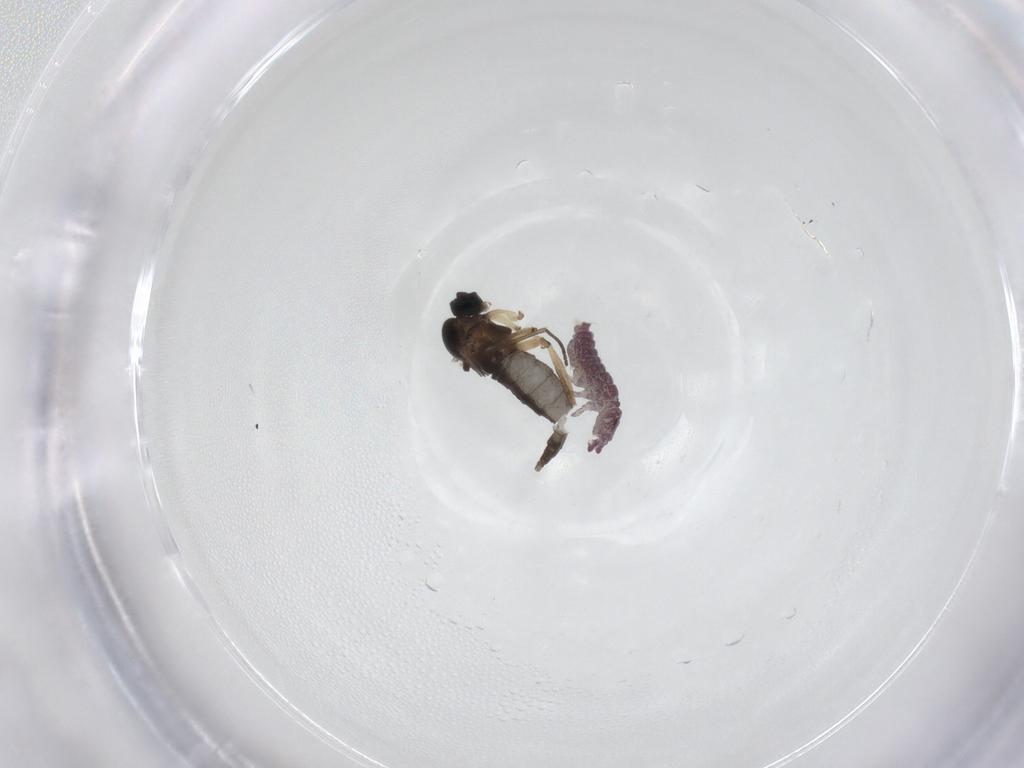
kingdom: Animalia
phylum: Arthropoda
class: Insecta
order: Diptera
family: Sciaridae
